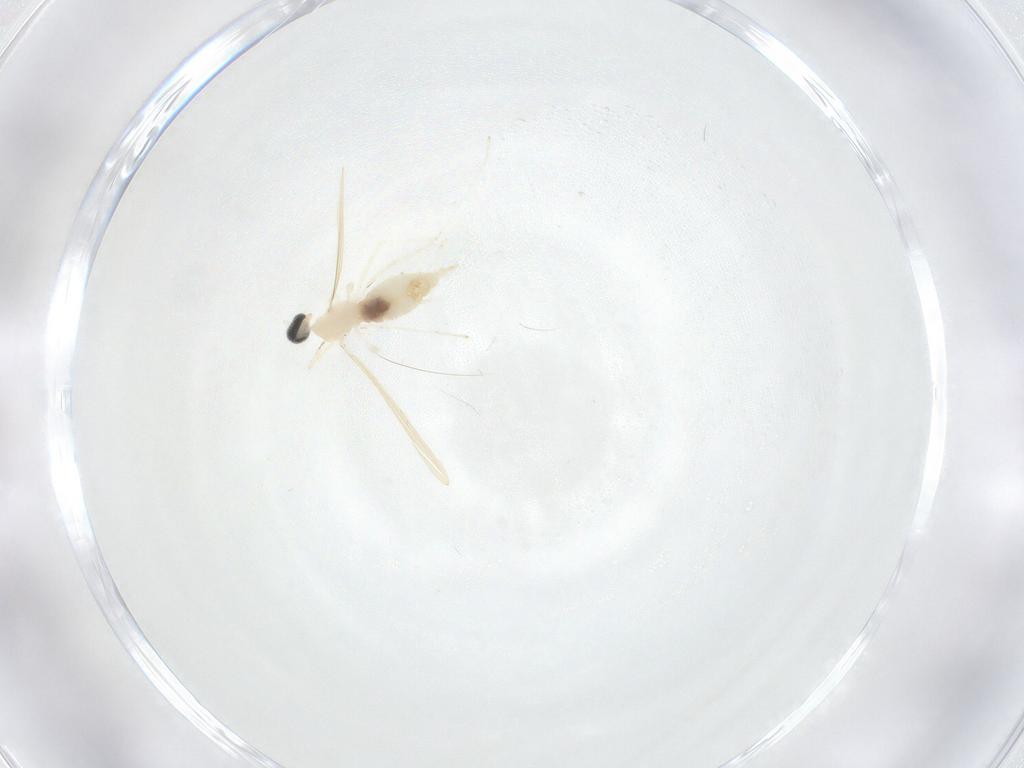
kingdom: Animalia
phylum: Arthropoda
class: Insecta
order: Diptera
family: Cecidomyiidae
